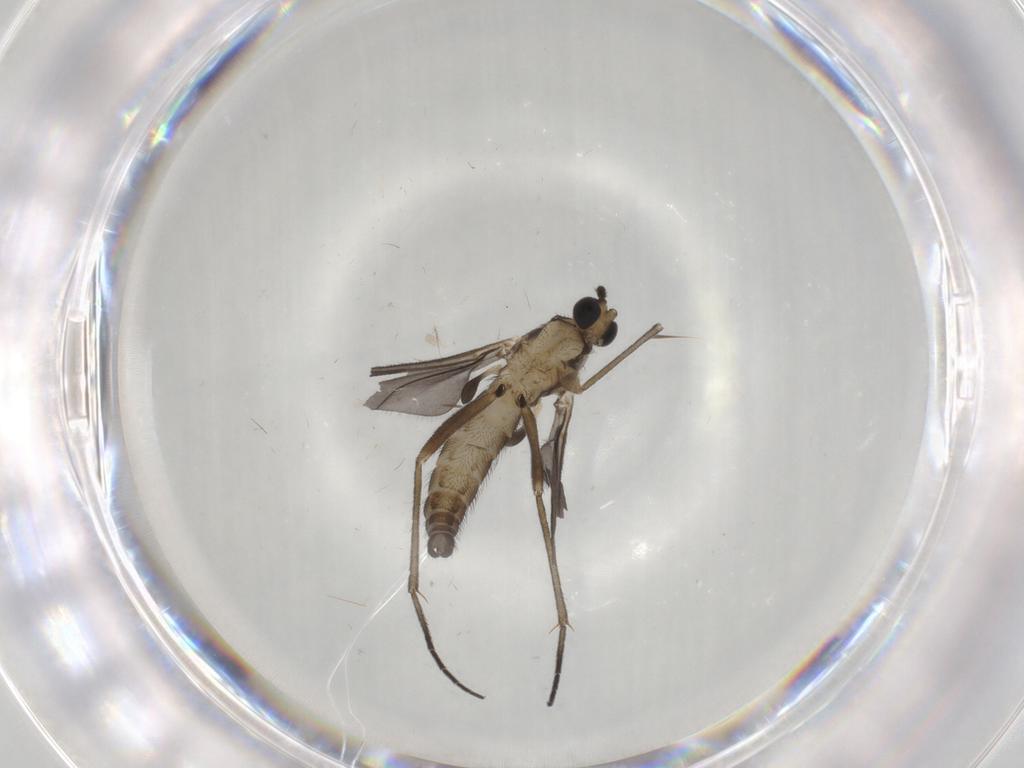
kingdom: Animalia
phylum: Arthropoda
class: Insecta
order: Diptera
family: Sciaridae
